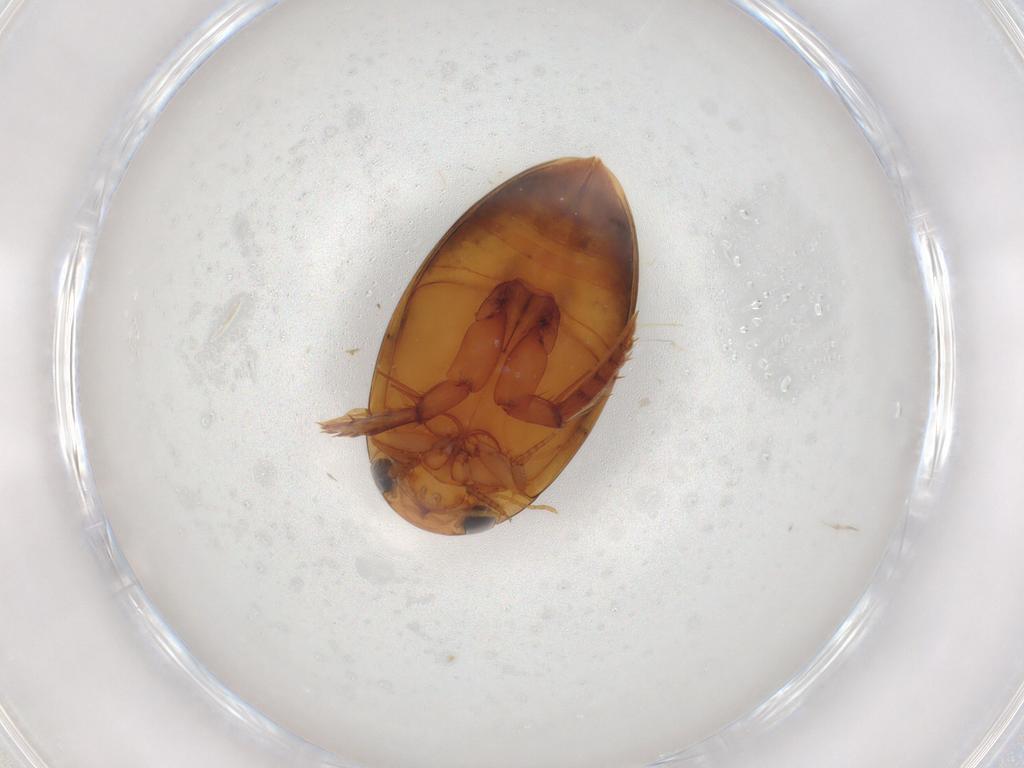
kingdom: Animalia
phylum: Arthropoda
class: Insecta
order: Coleoptera
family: Dytiscidae
